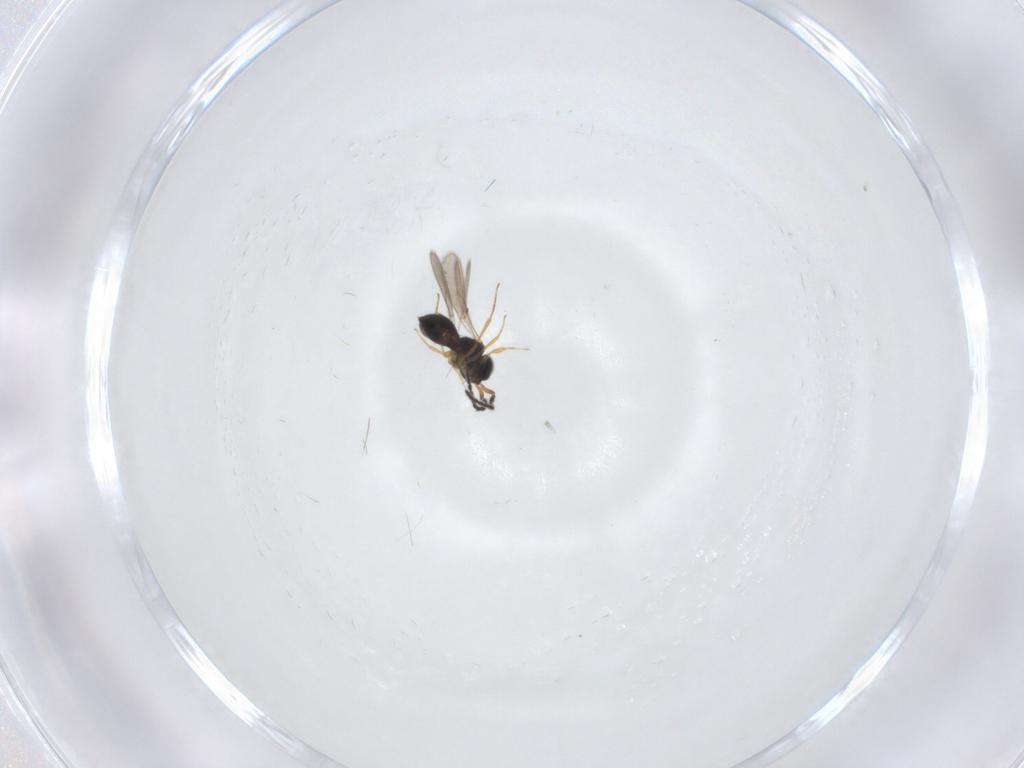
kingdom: Animalia
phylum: Arthropoda
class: Insecta
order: Hymenoptera
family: Scelionidae
